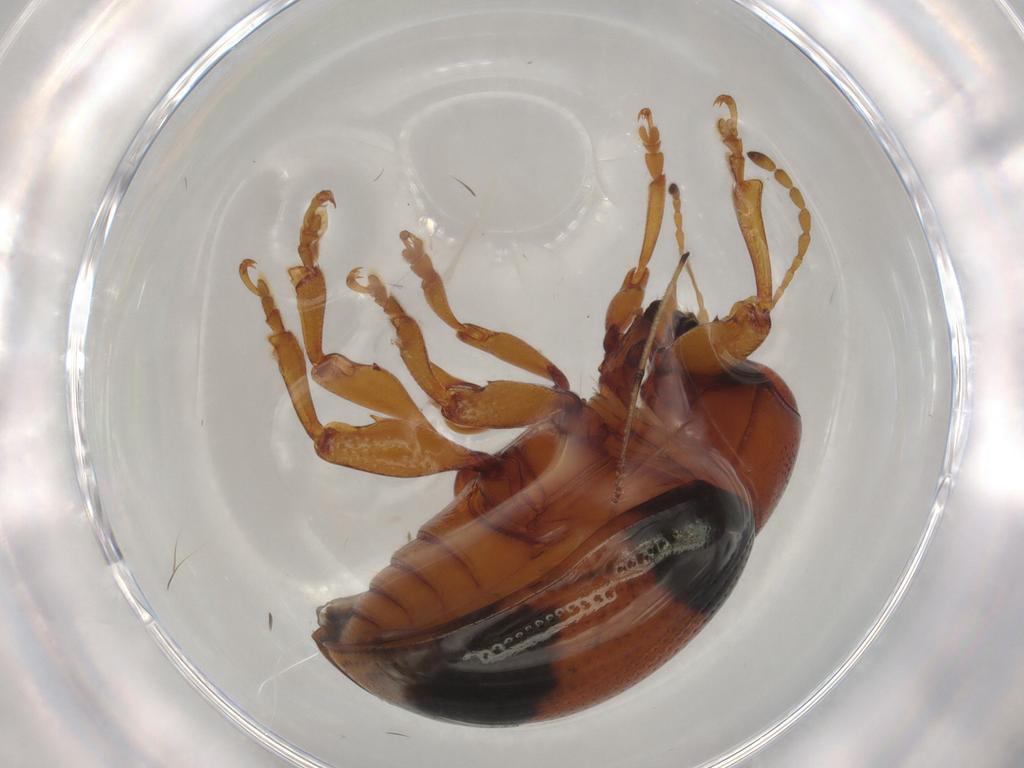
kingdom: Animalia
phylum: Arthropoda
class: Insecta
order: Coleoptera
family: Chrysomelidae
